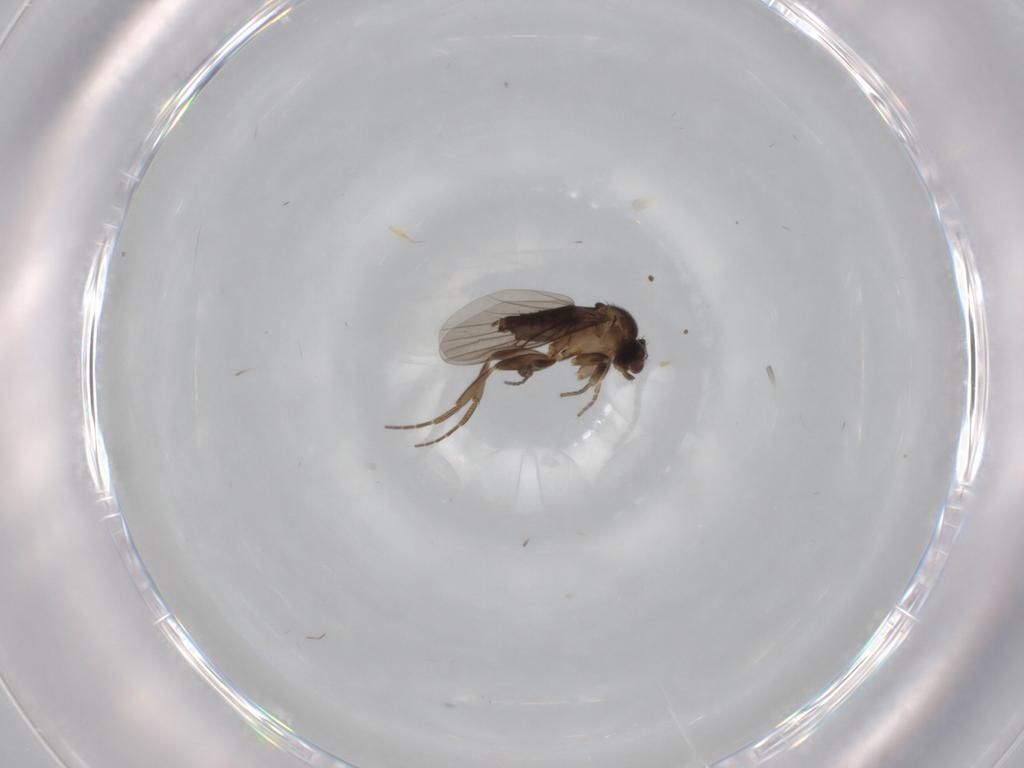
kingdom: Animalia
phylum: Arthropoda
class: Insecta
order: Diptera
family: Phoridae
